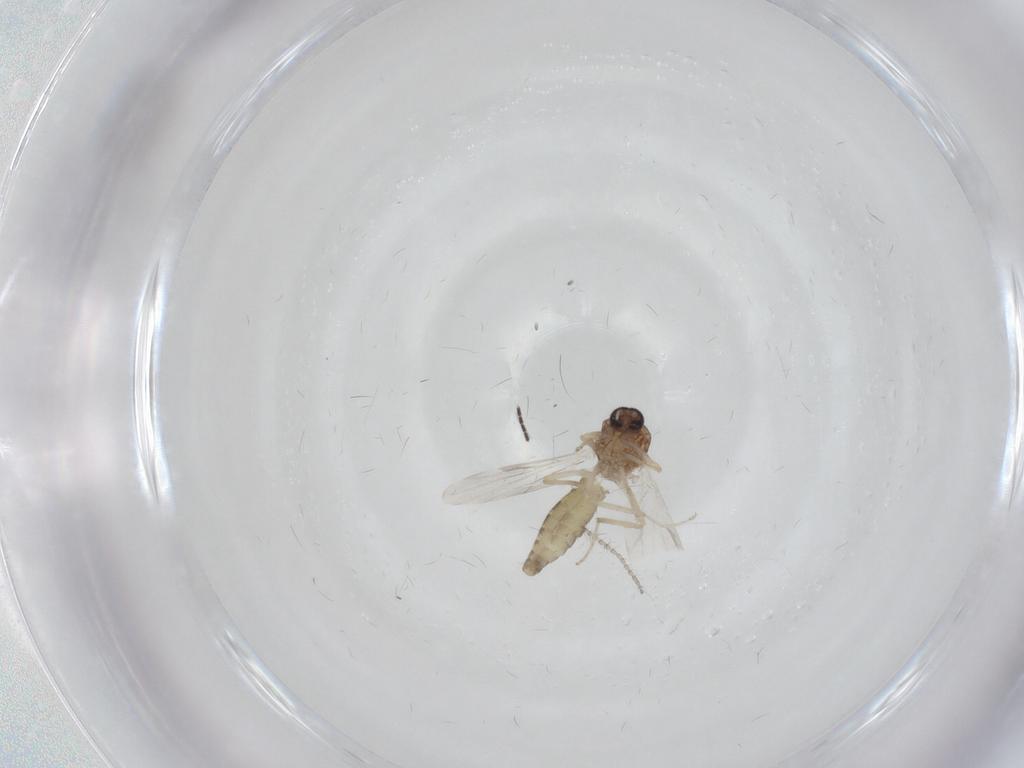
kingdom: Animalia
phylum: Arthropoda
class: Insecta
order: Diptera
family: Ceratopogonidae
